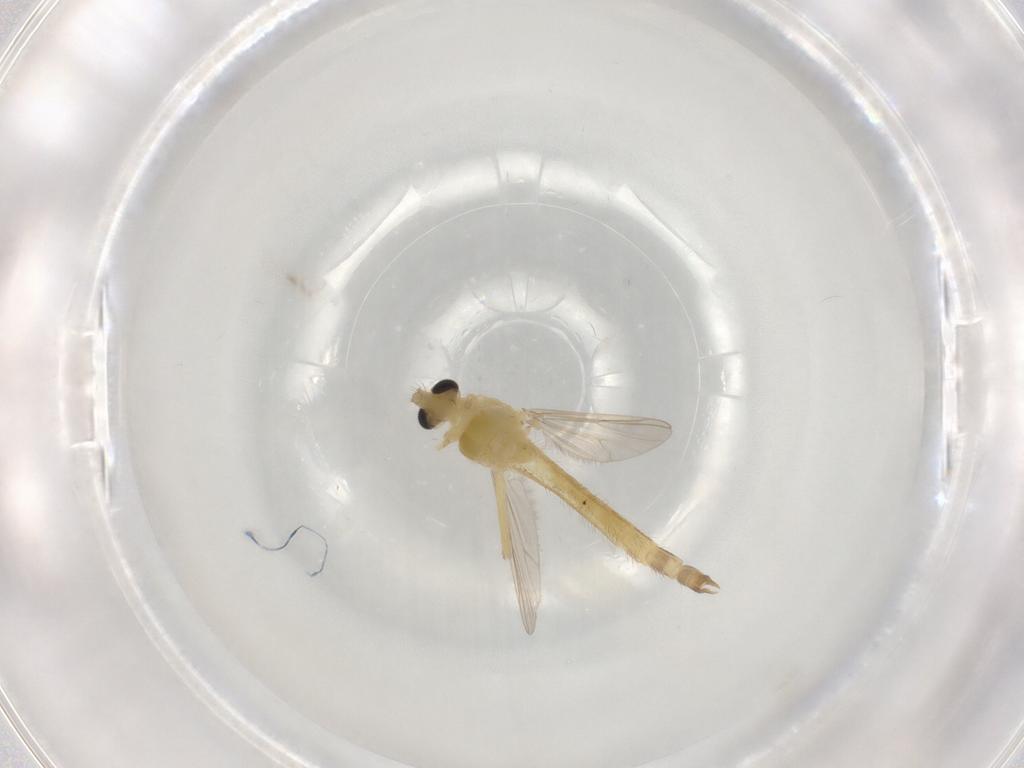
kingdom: Animalia
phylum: Arthropoda
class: Insecta
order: Diptera
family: Chironomidae
